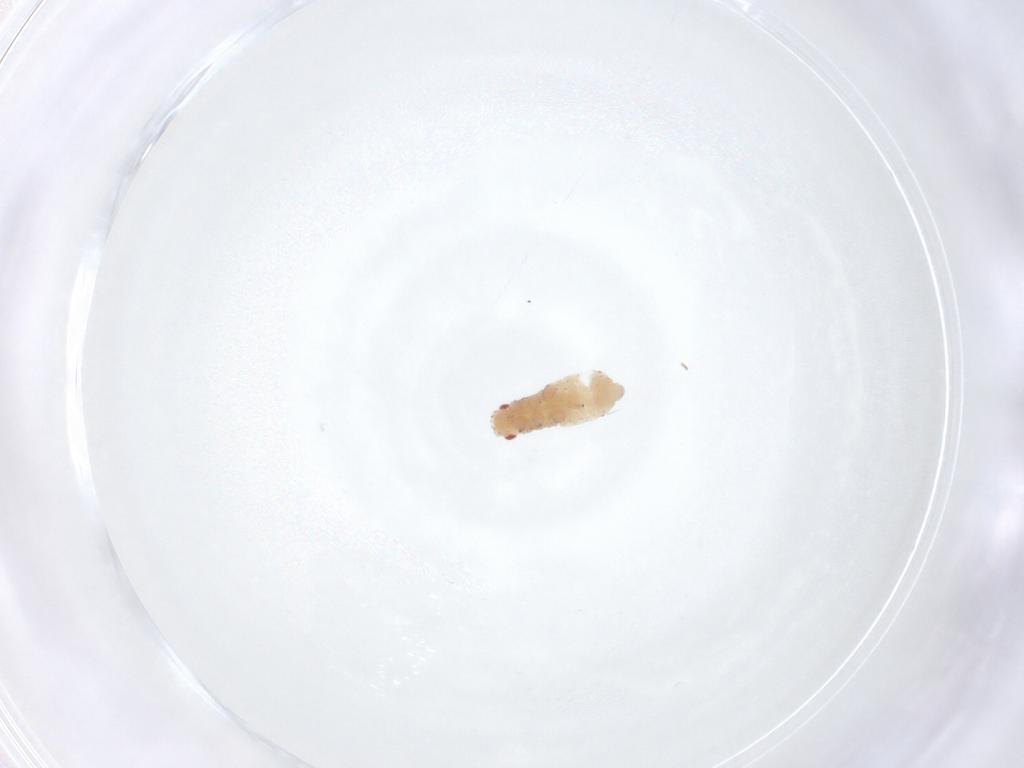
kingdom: Animalia
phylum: Arthropoda
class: Insecta
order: Hemiptera
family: Aphididae
